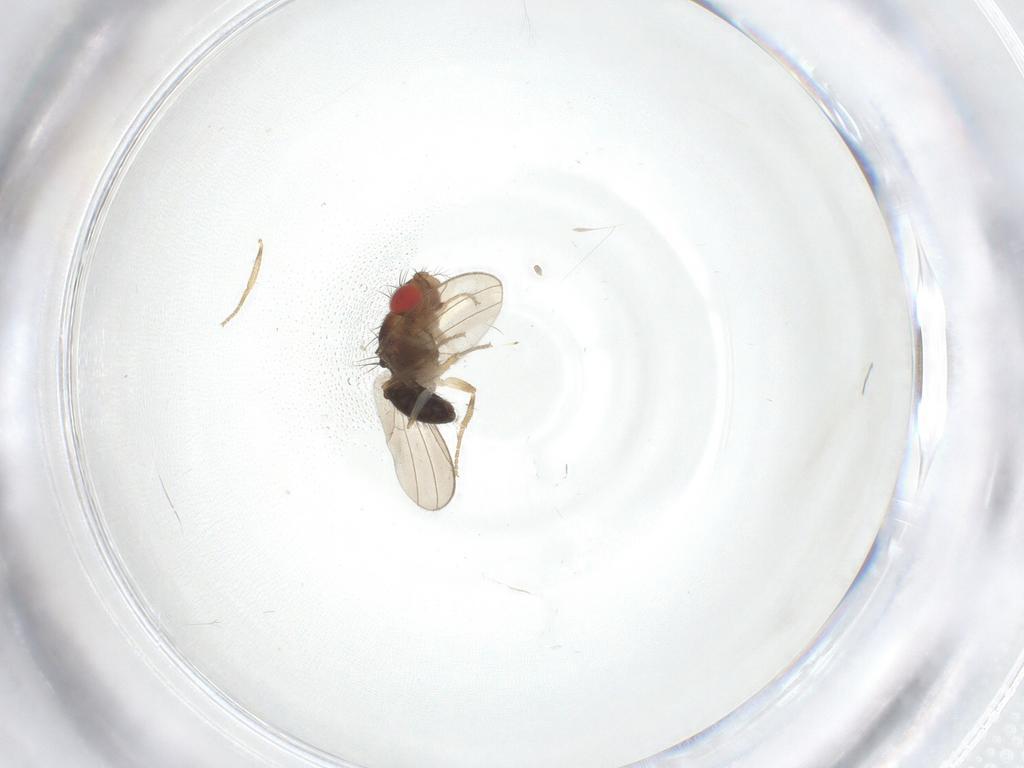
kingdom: Animalia
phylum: Arthropoda
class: Insecta
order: Diptera
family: Drosophilidae
